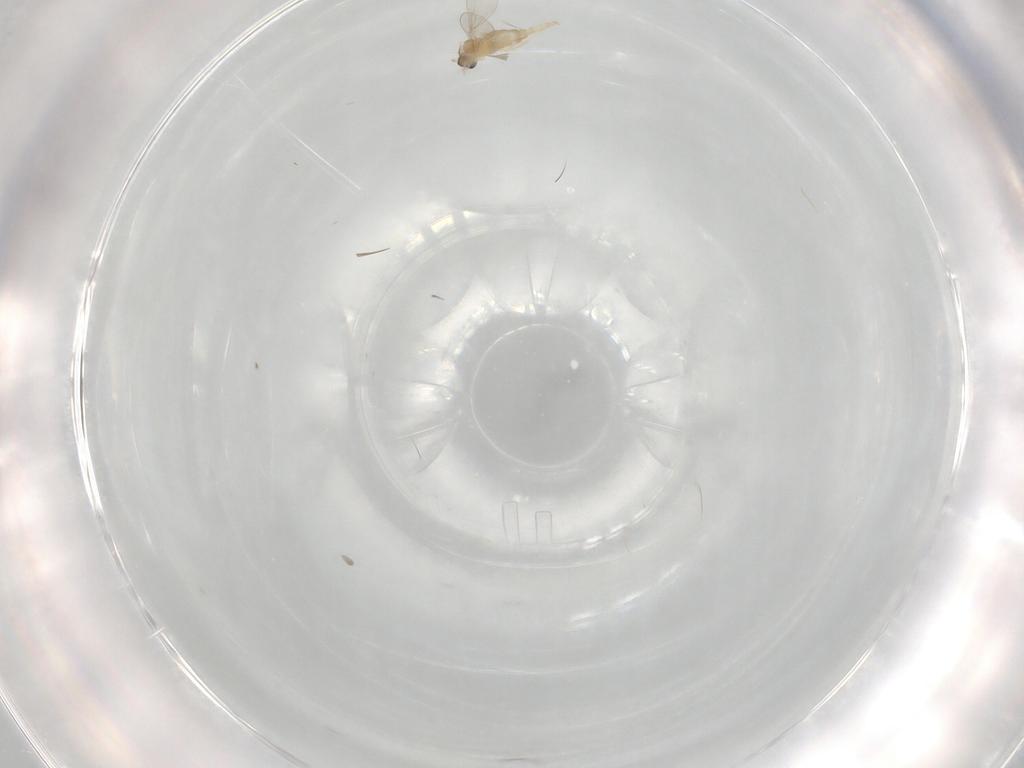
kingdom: Animalia
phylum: Arthropoda
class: Insecta
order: Diptera
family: Cecidomyiidae
